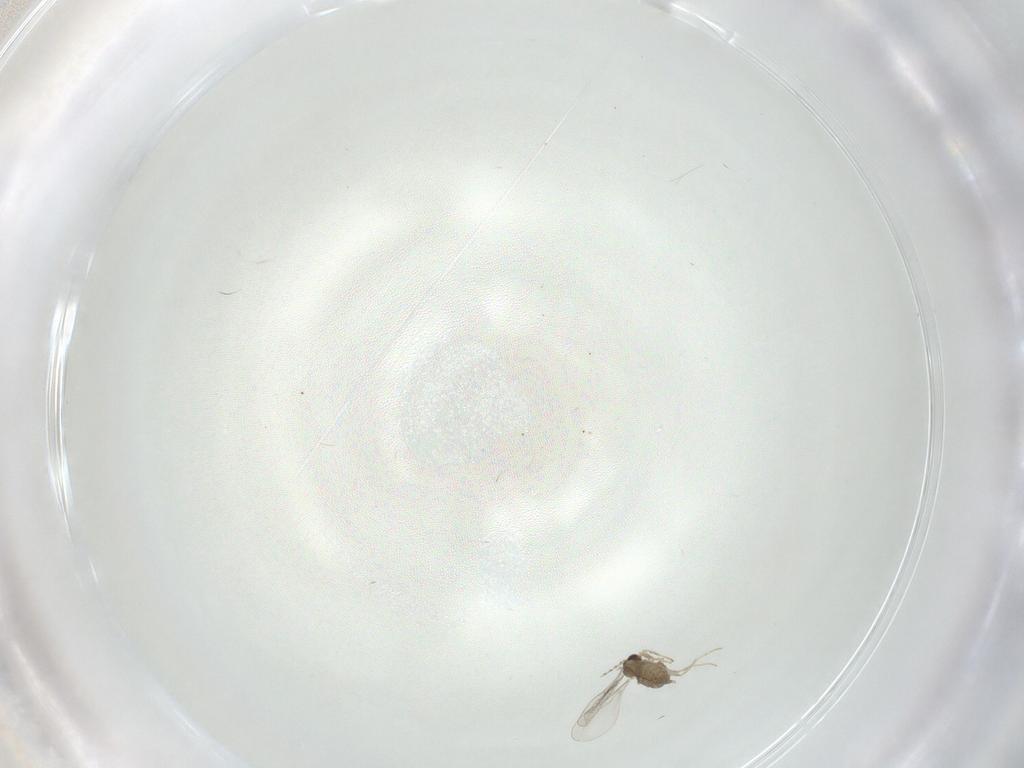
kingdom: Animalia
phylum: Arthropoda
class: Insecta
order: Diptera
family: Cecidomyiidae
